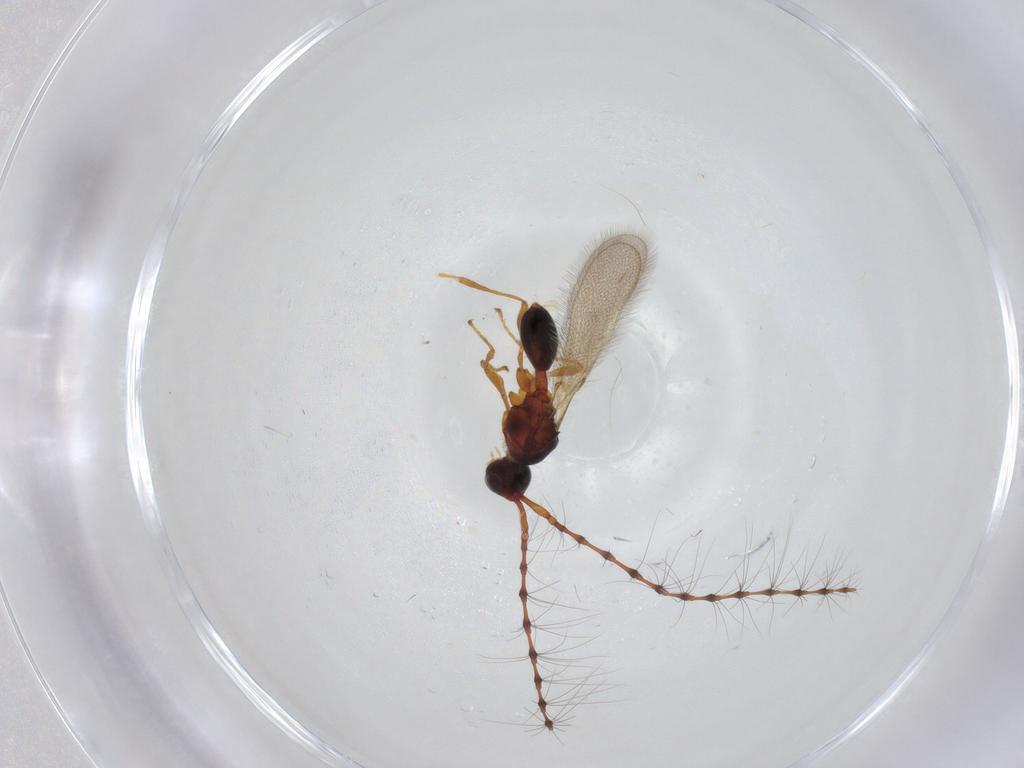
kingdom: Animalia
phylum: Arthropoda
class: Insecta
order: Hymenoptera
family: Diapriidae
